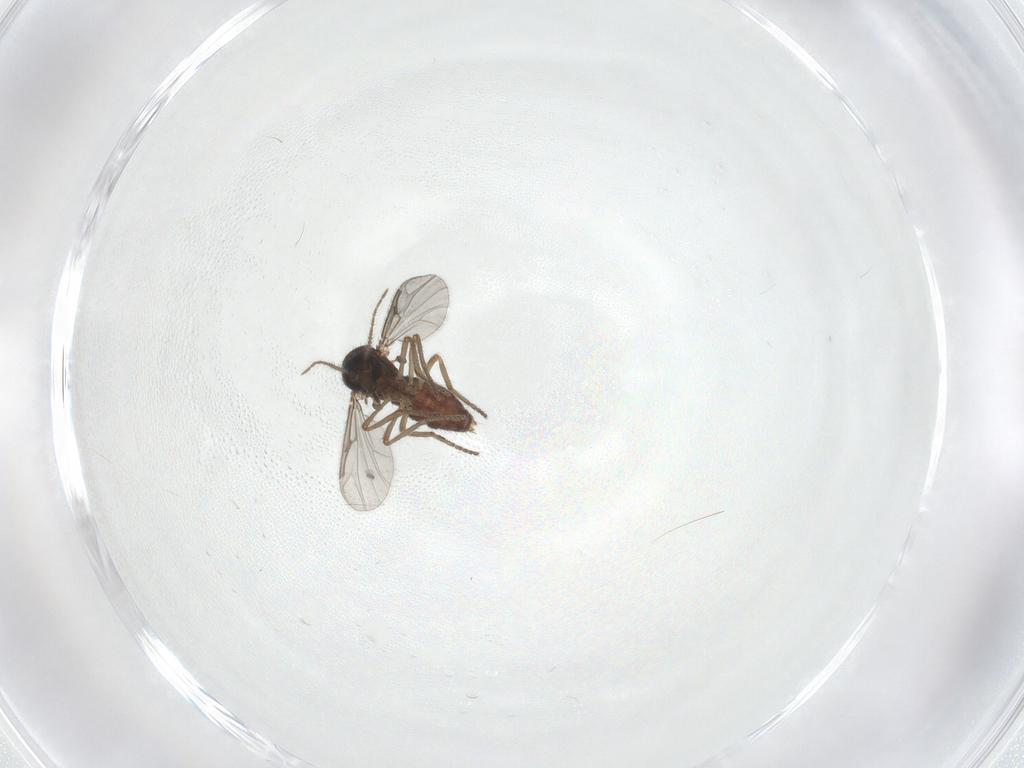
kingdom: Animalia
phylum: Arthropoda
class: Insecta
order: Diptera
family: Ceratopogonidae
